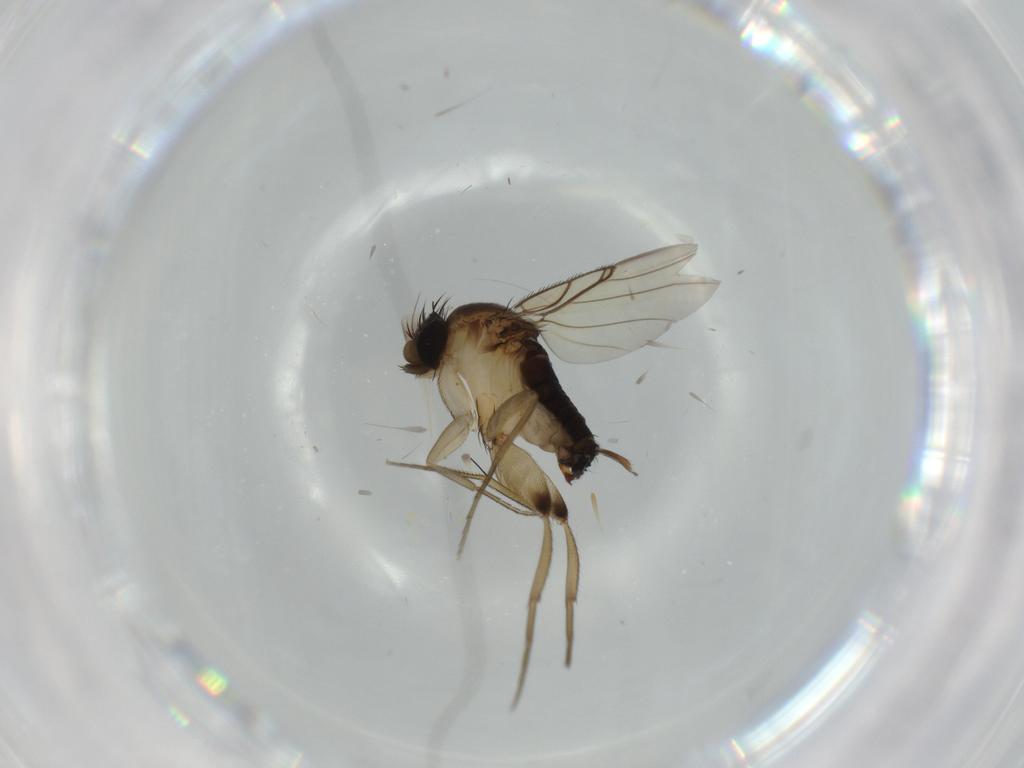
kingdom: Animalia
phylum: Arthropoda
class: Insecta
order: Diptera
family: Phoridae
